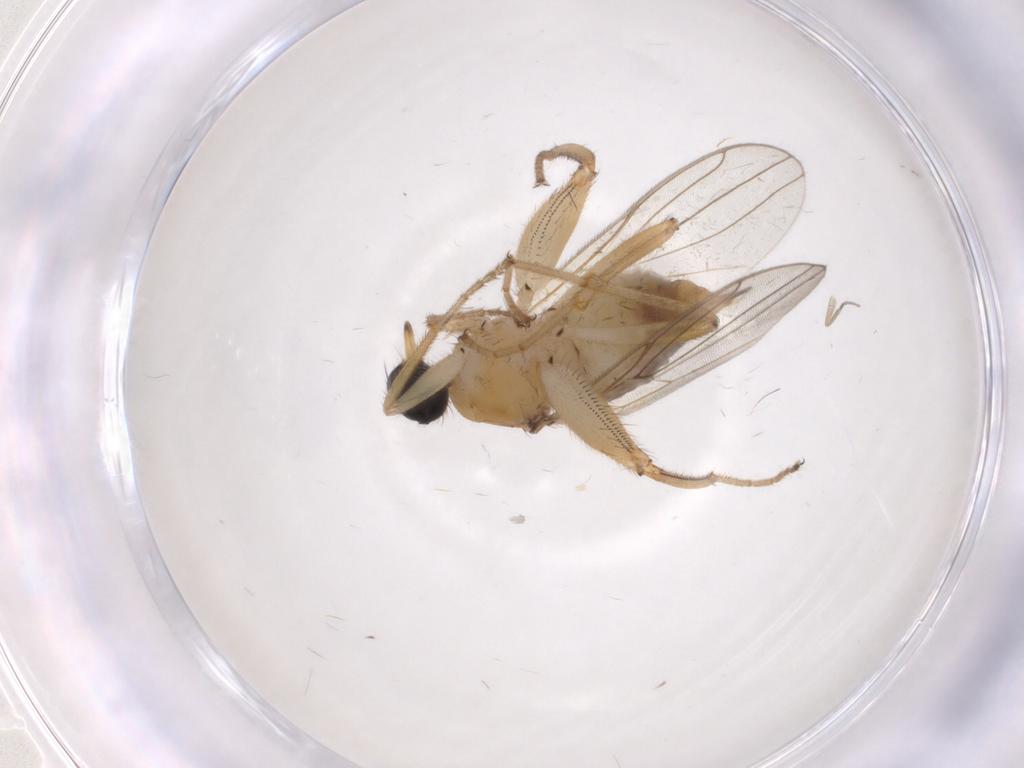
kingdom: Animalia
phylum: Arthropoda
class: Insecta
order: Diptera
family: Hybotidae
